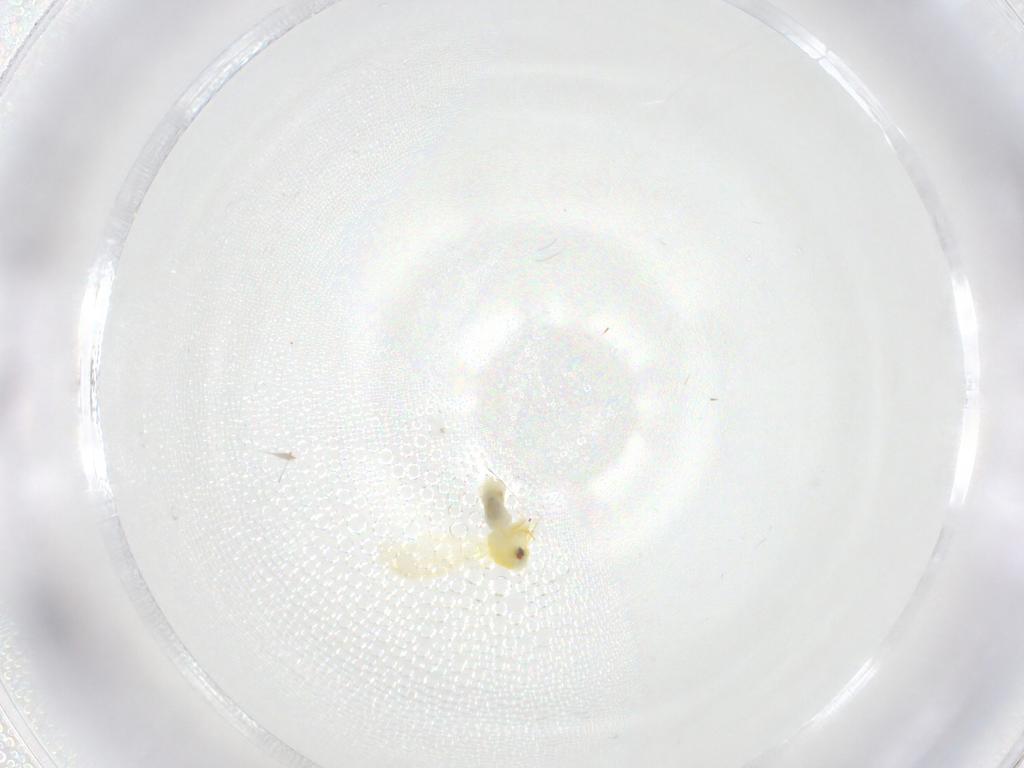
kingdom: Animalia
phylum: Arthropoda
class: Insecta
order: Hemiptera
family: Aleyrodidae
